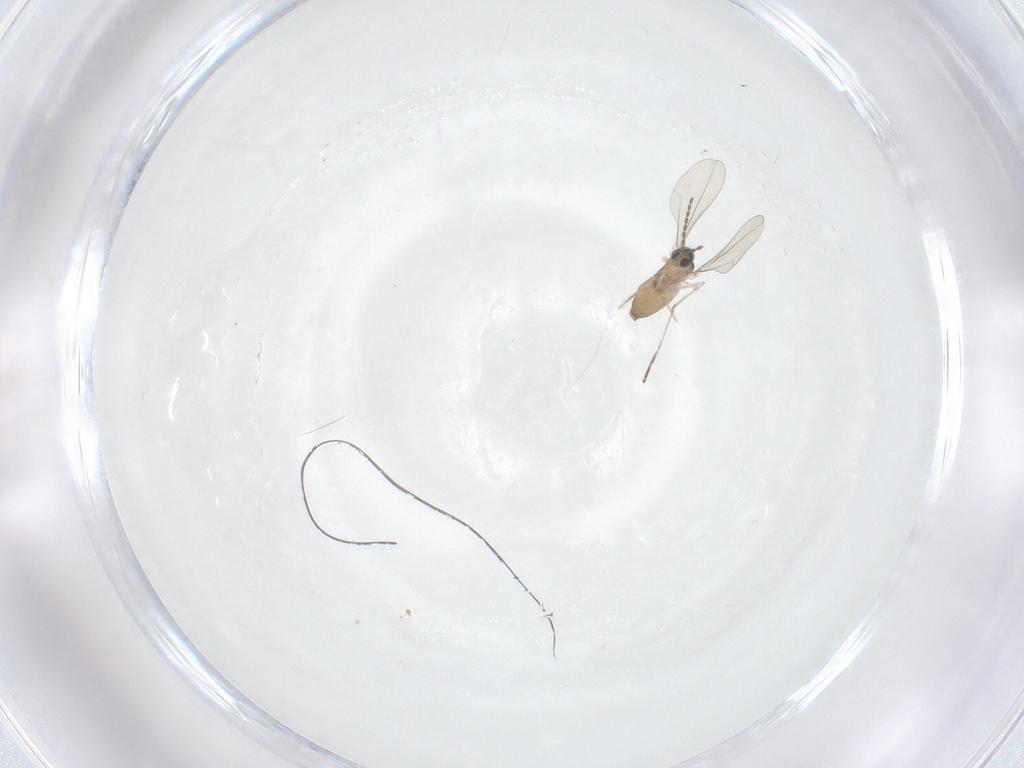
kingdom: Animalia
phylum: Arthropoda
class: Insecta
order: Diptera
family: Cecidomyiidae
